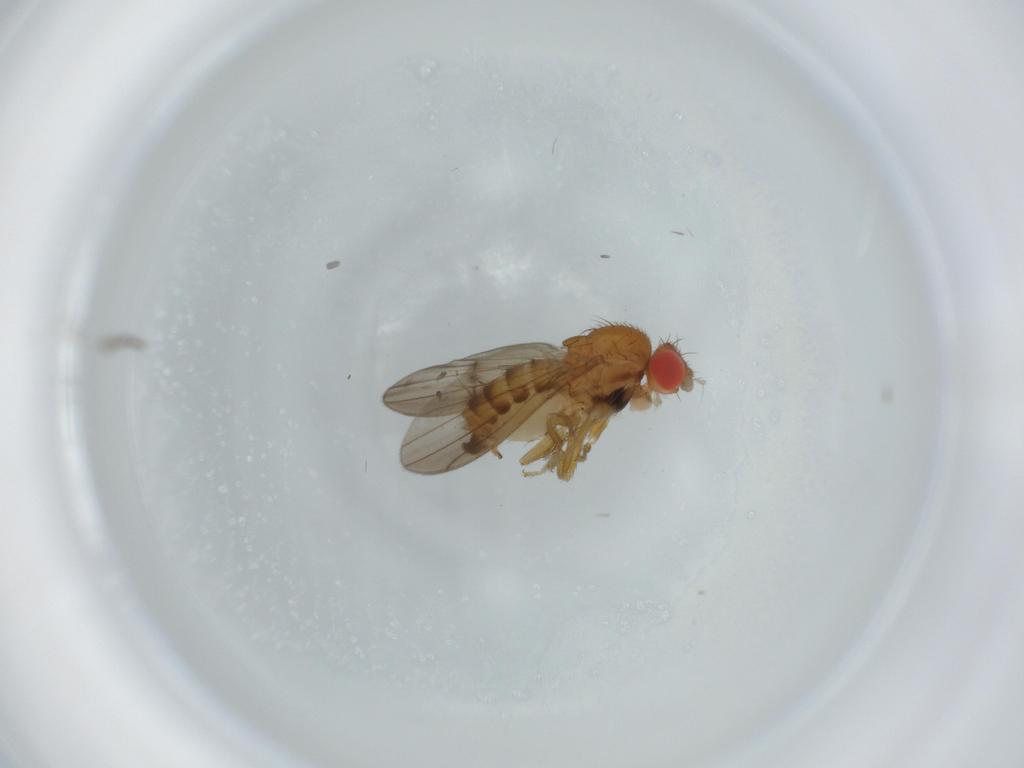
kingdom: Animalia
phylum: Arthropoda
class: Insecta
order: Diptera
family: Drosophilidae
